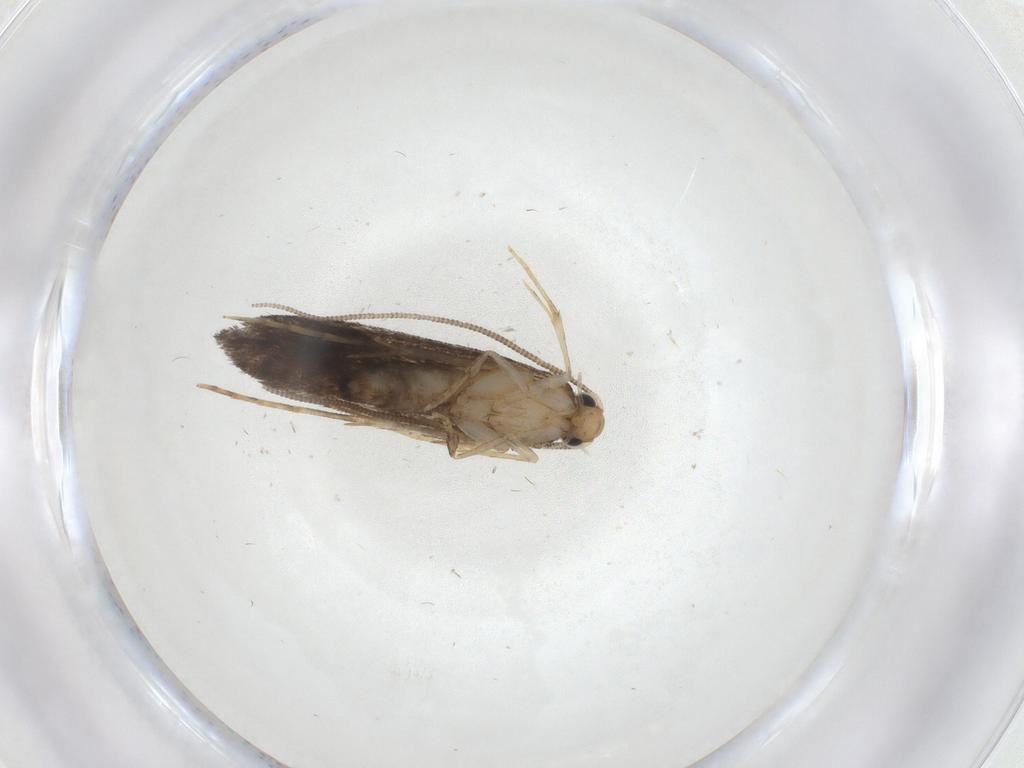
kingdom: Animalia
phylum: Arthropoda
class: Insecta
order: Lepidoptera
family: Tineidae
